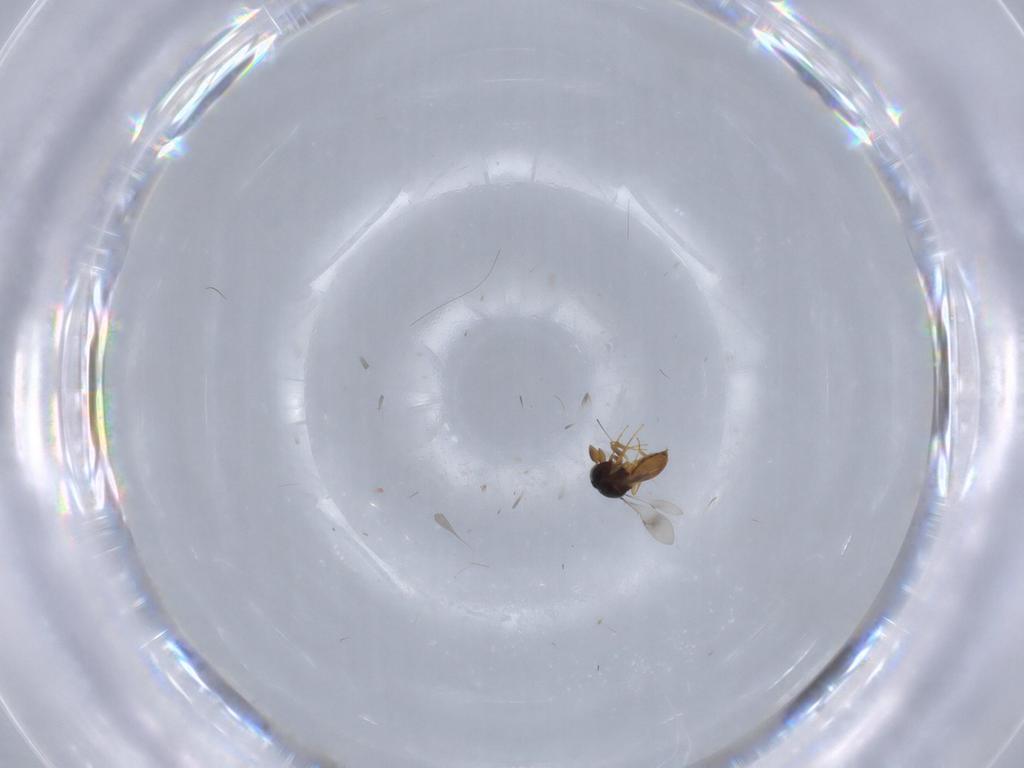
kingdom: Animalia
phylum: Arthropoda
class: Insecta
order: Hymenoptera
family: Scelionidae
